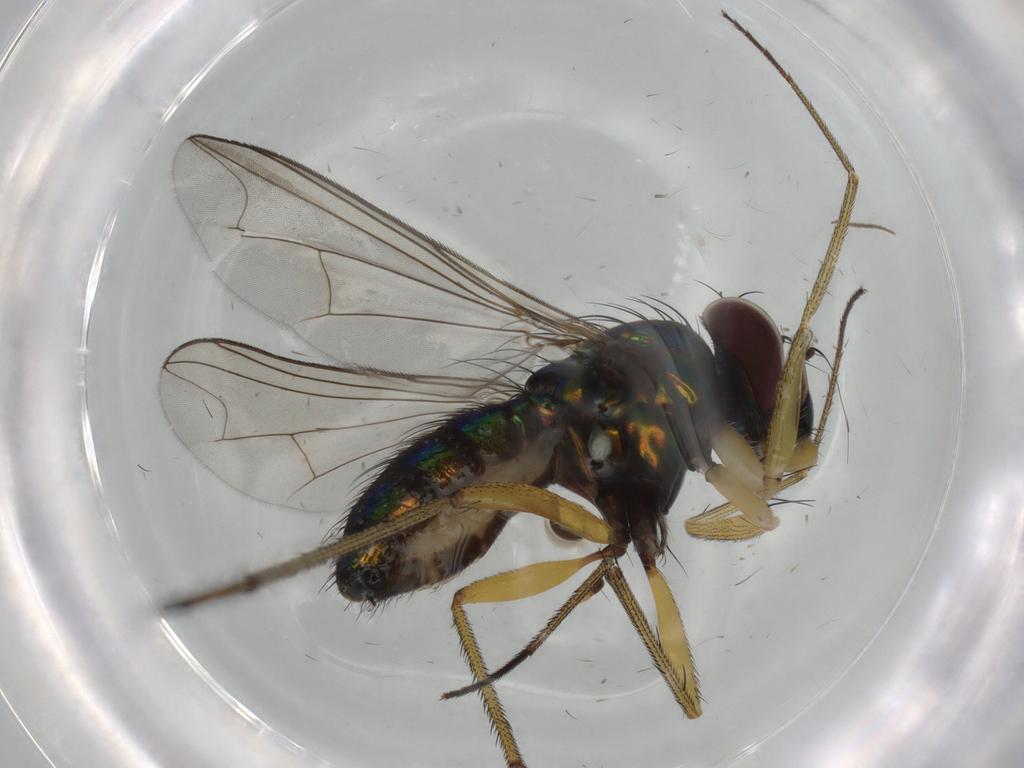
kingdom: Animalia
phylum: Arthropoda
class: Insecta
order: Diptera
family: Dolichopodidae
